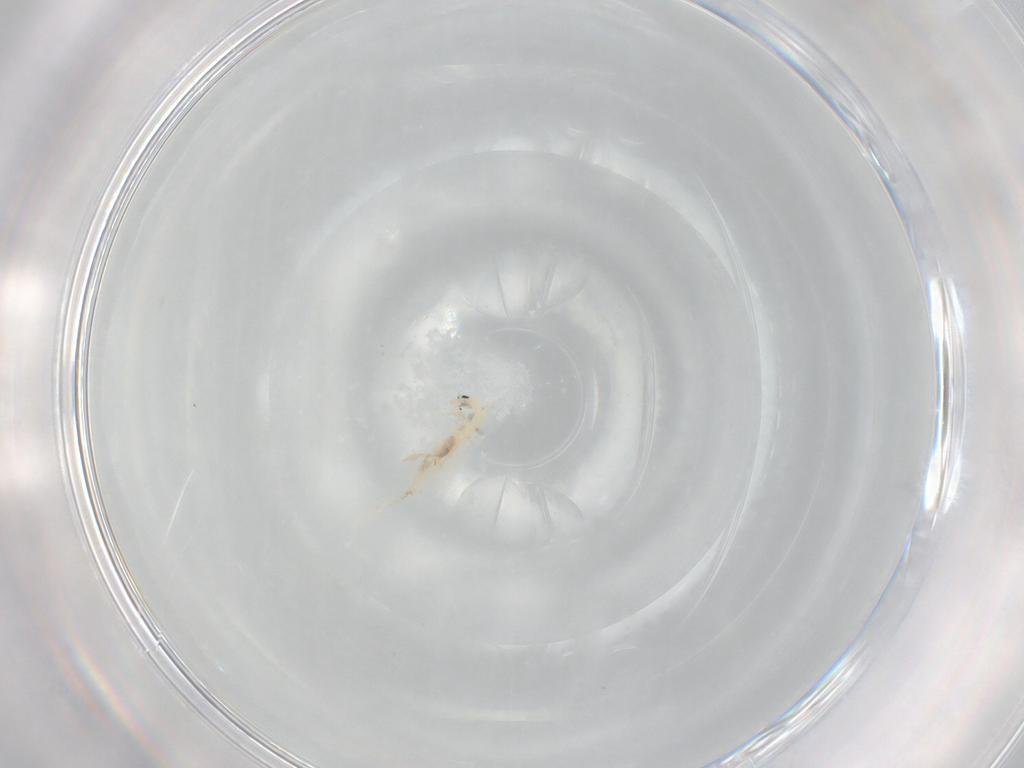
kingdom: Animalia
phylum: Arthropoda
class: Collembola
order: Entomobryomorpha
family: Entomobryidae
